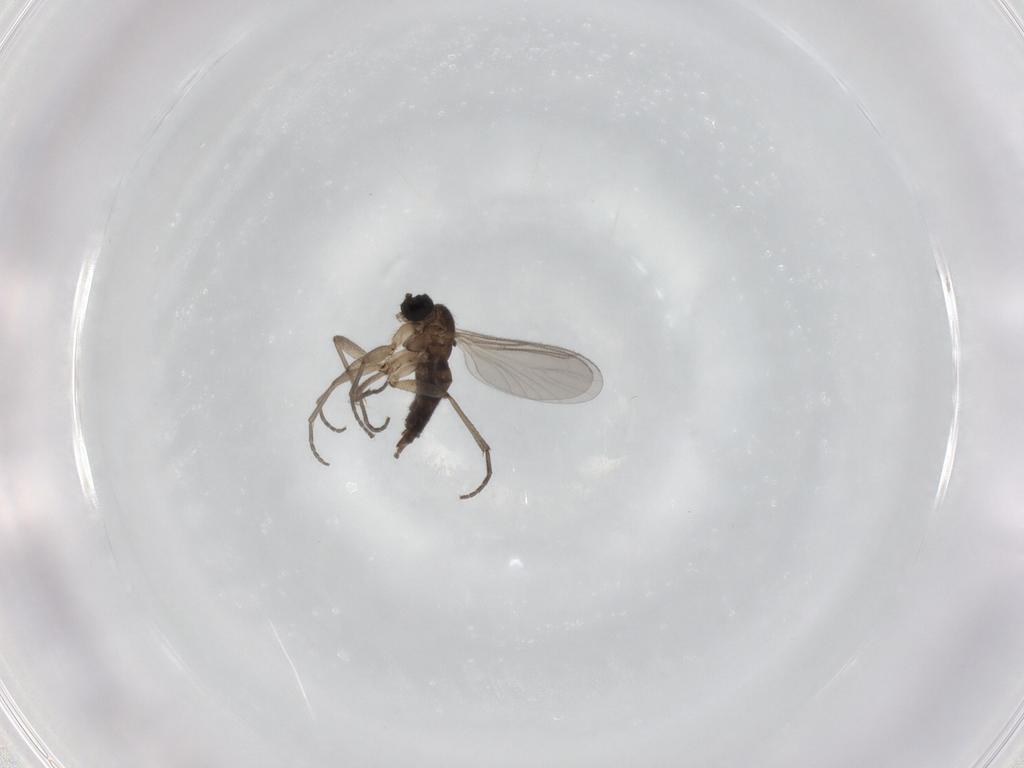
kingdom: Animalia
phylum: Arthropoda
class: Insecta
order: Diptera
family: Sciaridae
